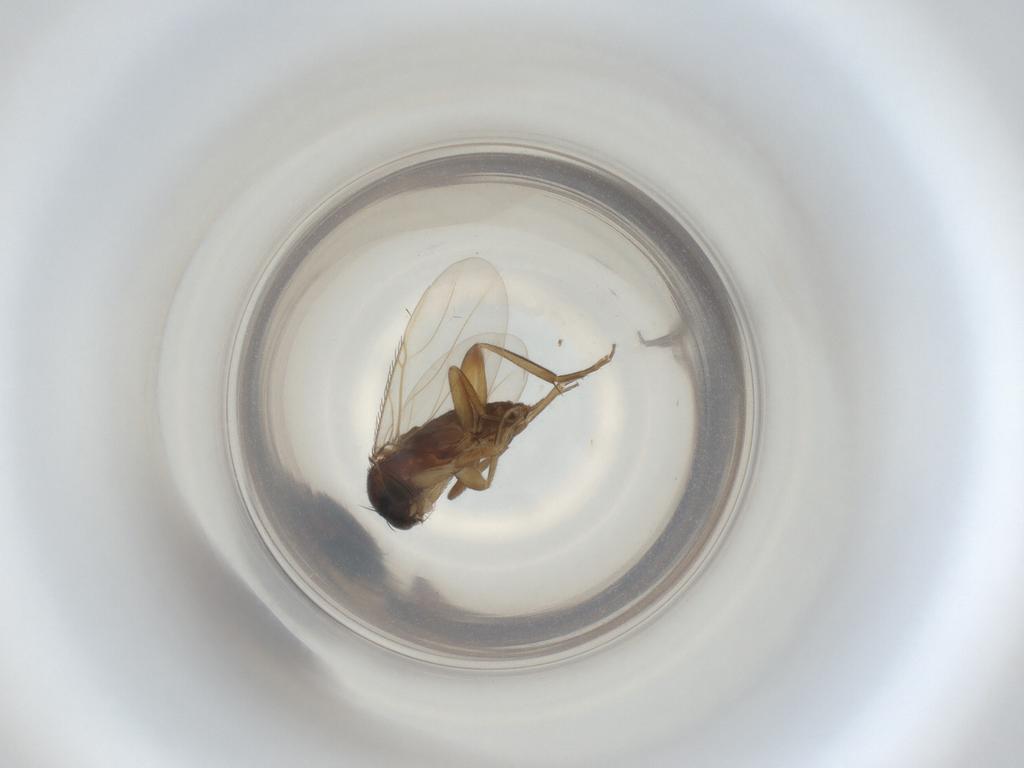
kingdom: Animalia
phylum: Arthropoda
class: Insecta
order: Diptera
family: Phoridae
